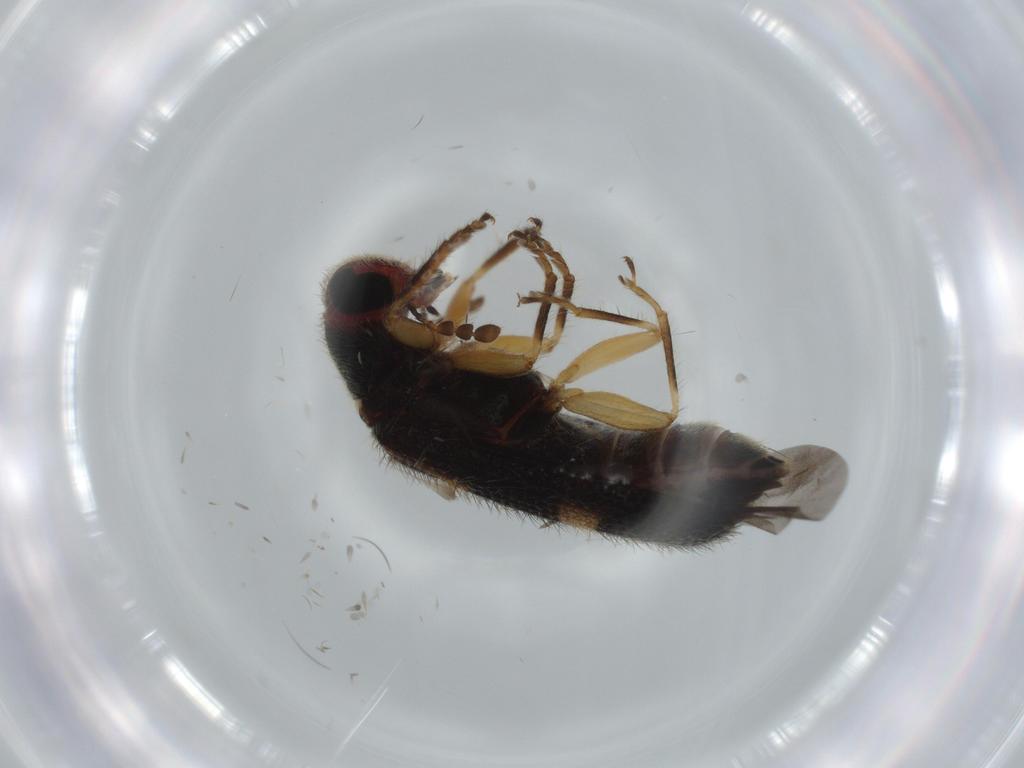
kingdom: Animalia
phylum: Arthropoda
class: Insecta
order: Coleoptera
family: Cleridae
